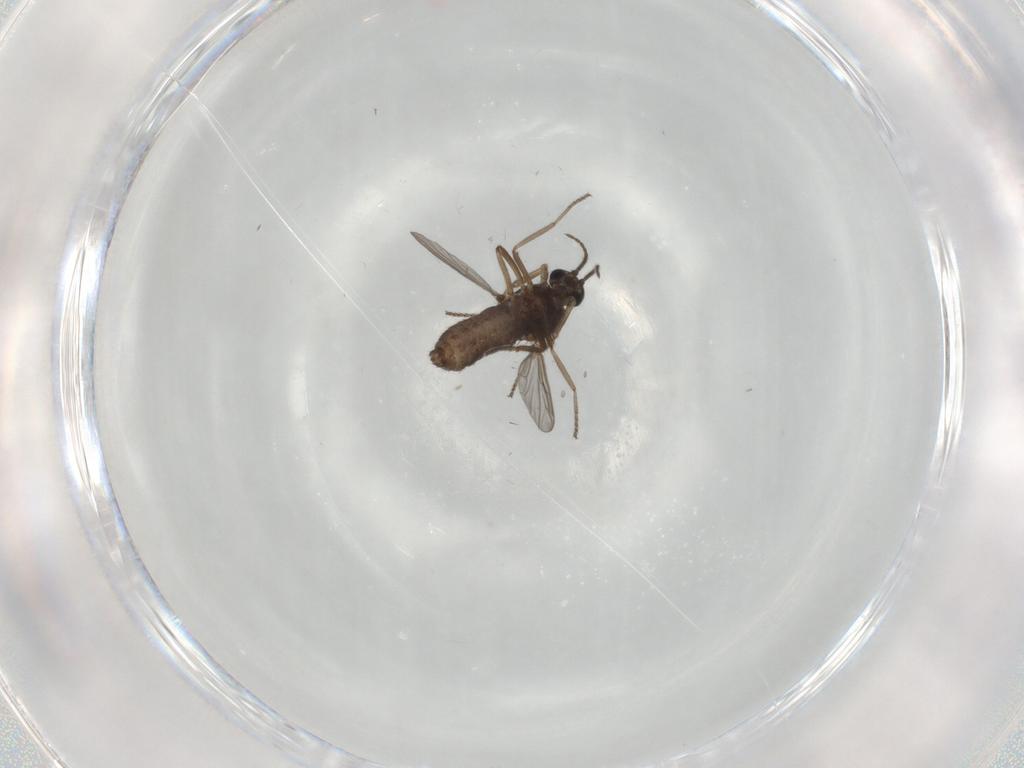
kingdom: Animalia
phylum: Arthropoda
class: Insecta
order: Diptera
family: Ceratopogonidae
